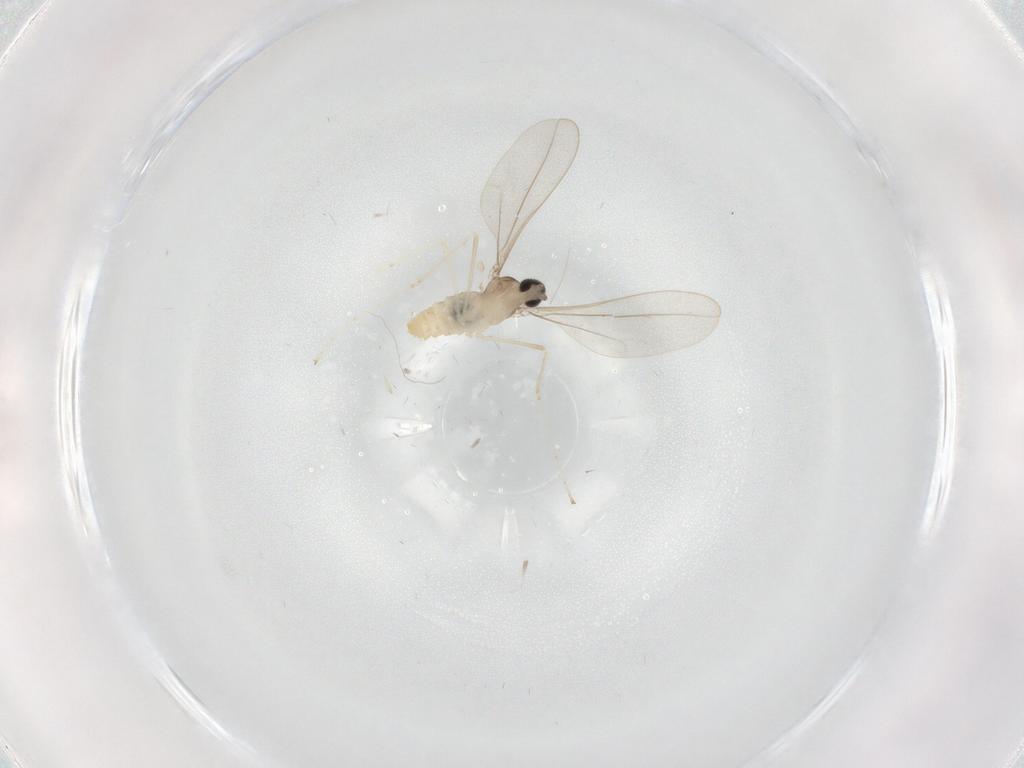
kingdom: Animalia
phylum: Arthropoda
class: Insecta
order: Diptera
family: Cecidomyiidae
